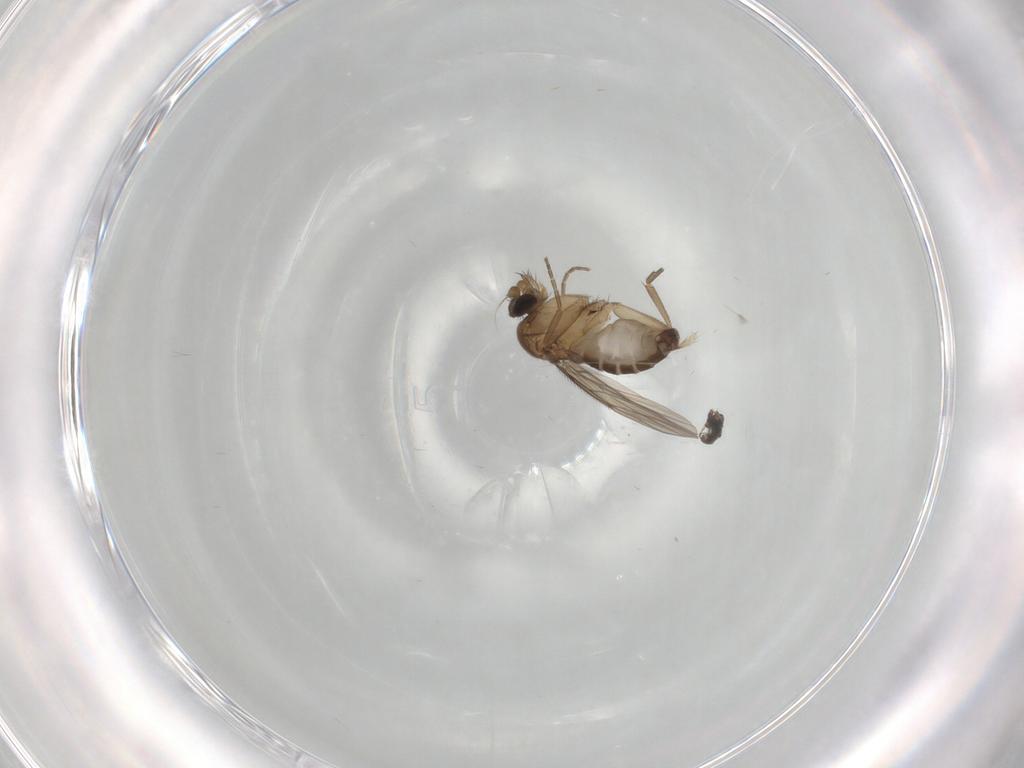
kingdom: Animalia
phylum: Arthropoda
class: Insecta
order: Diptera
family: Phoridae
